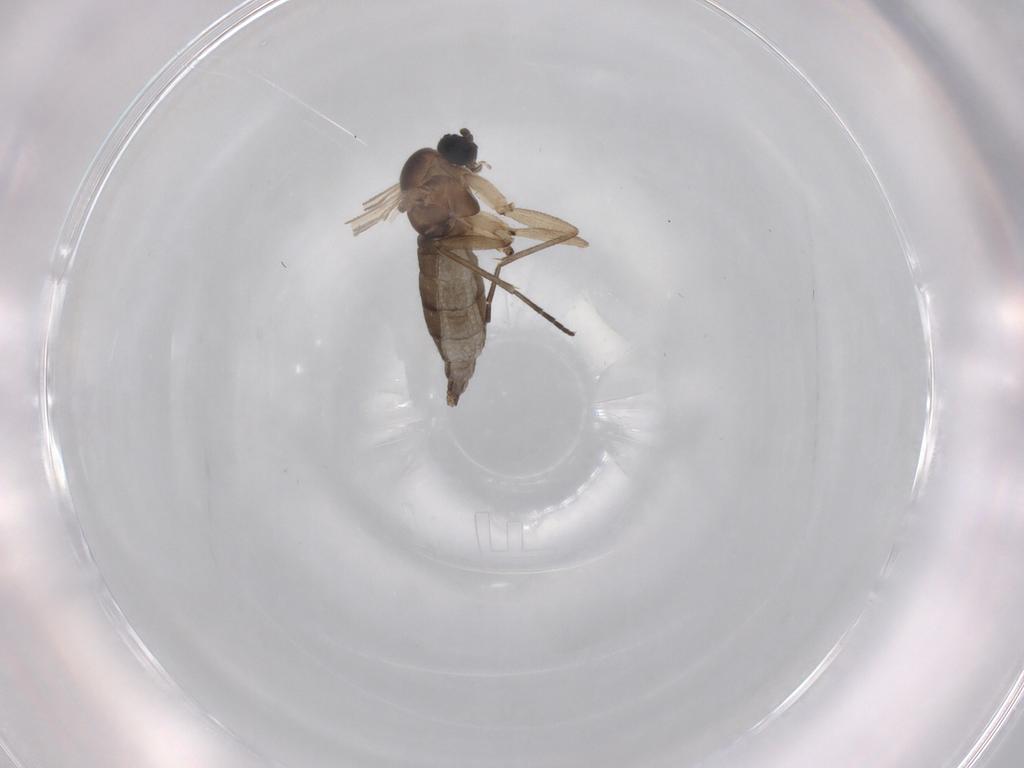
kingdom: Animalia
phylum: Arthropoda
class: Insecta
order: Diptera
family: Sciaridae
